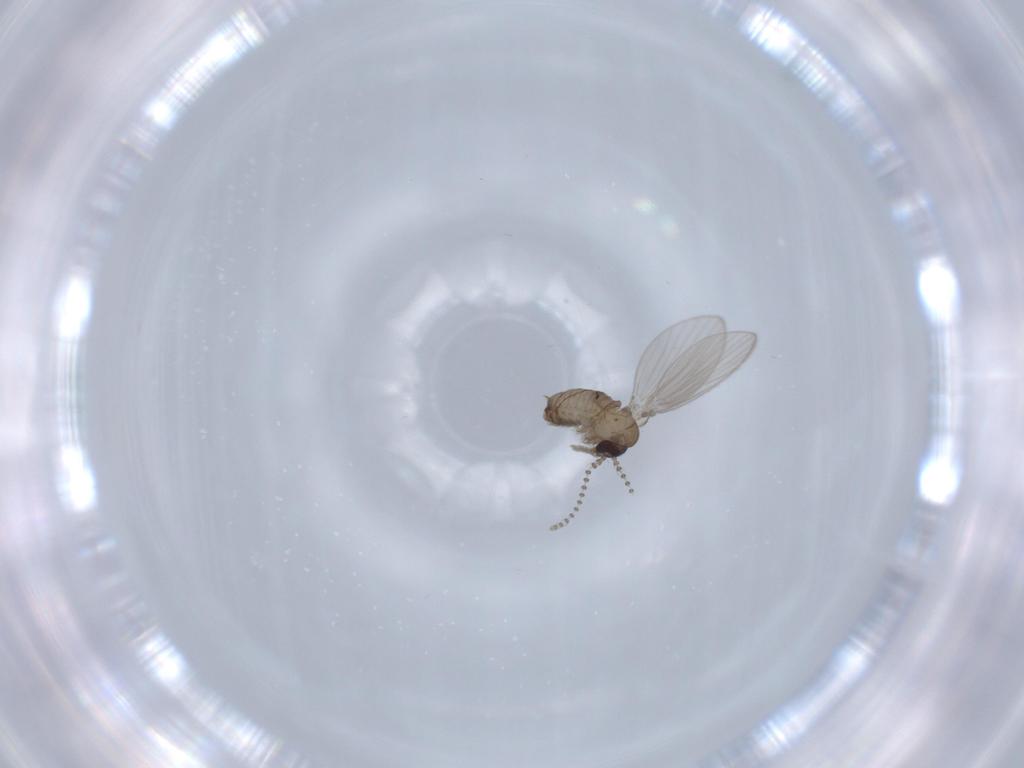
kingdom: Animalia
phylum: Arthropoda
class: Insecta
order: Diptera
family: Psychodidae
